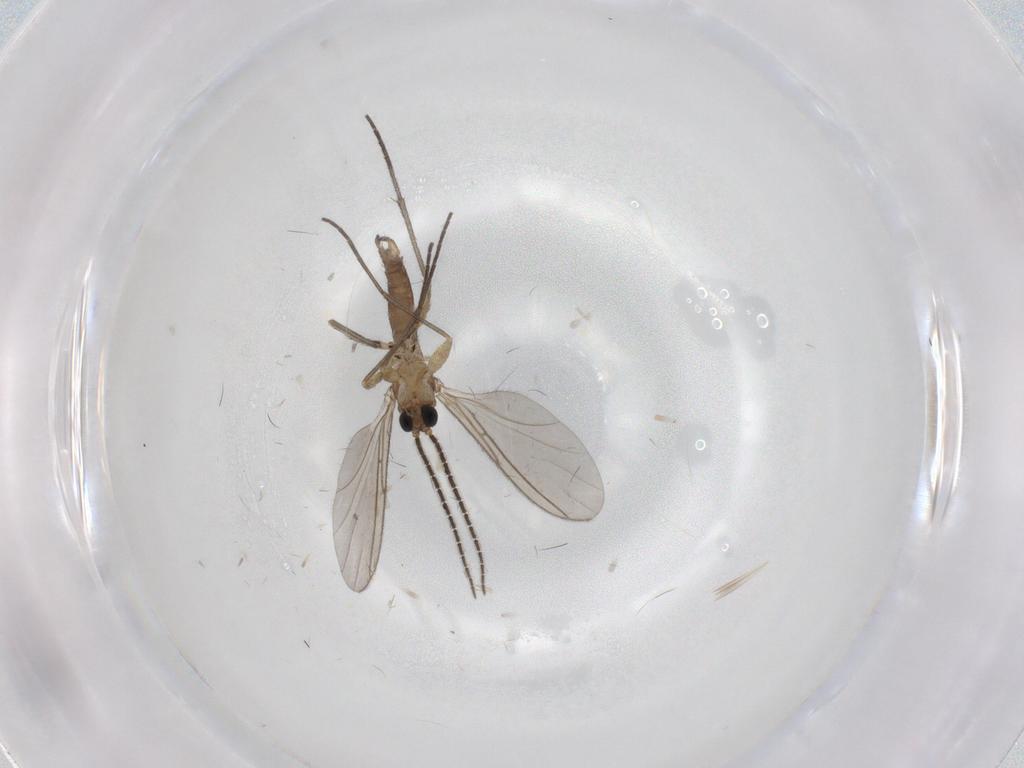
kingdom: Animalia
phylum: Arthropoda
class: Insecta
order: Diptera
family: Sciaridae
